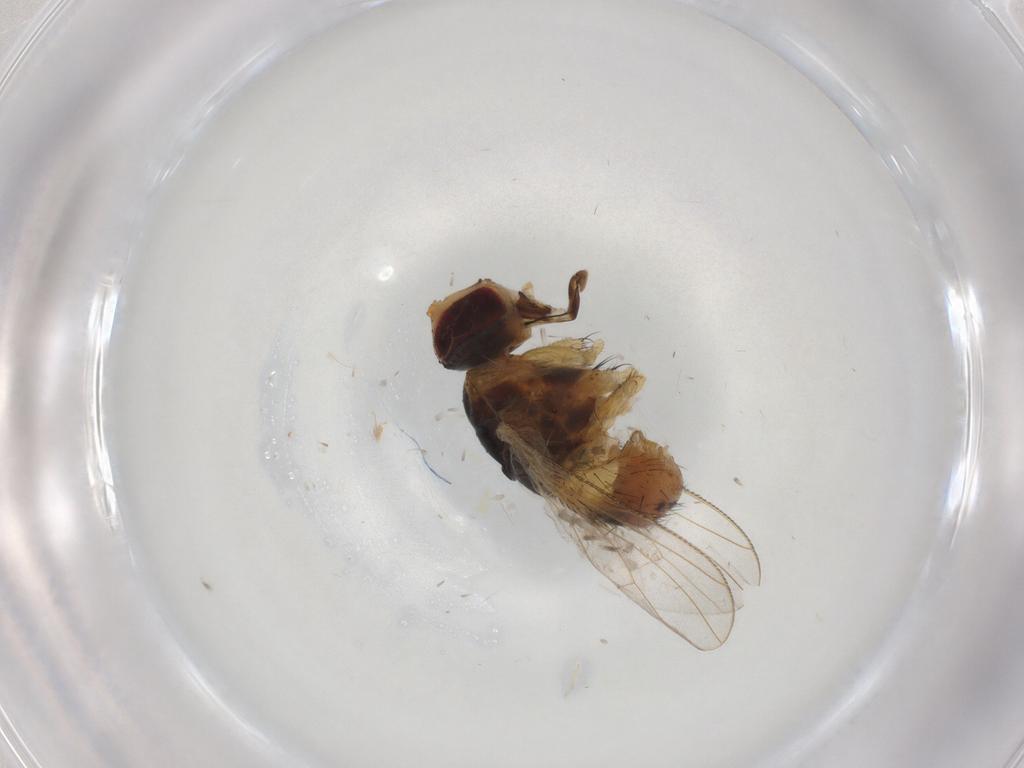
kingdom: Animalia
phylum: Arthropoda
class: Insecta
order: Diptera
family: Muscidae
